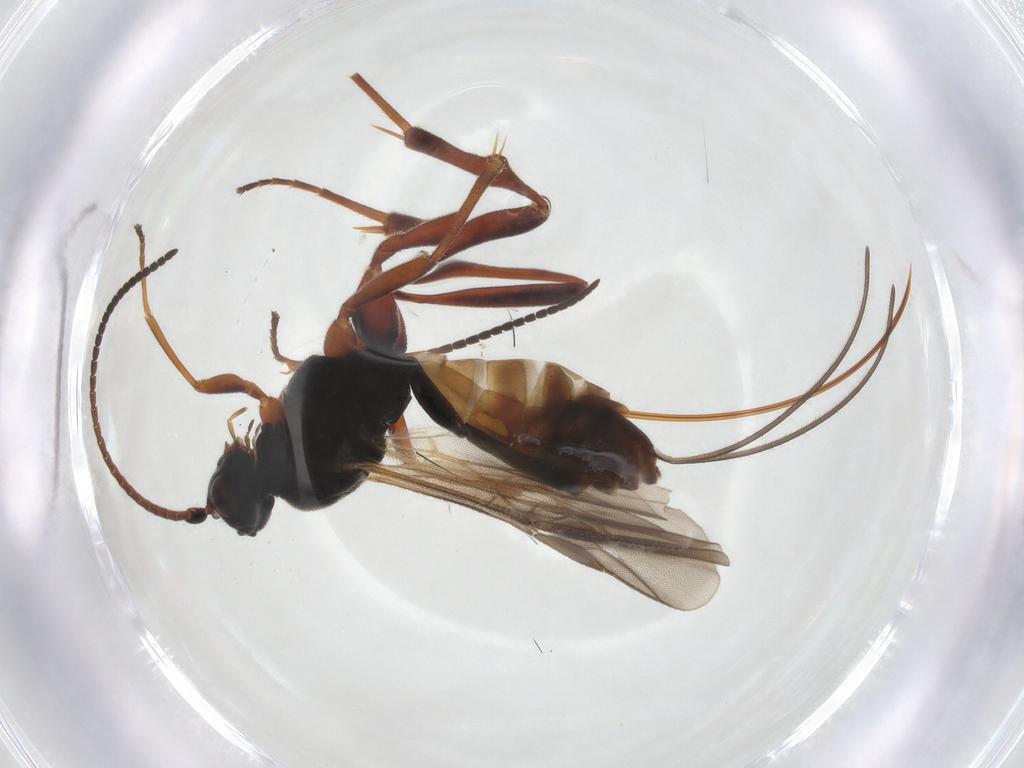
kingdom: Animalia
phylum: Arthropoda
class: Insecta
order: Hymenoptera
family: Braconidae
